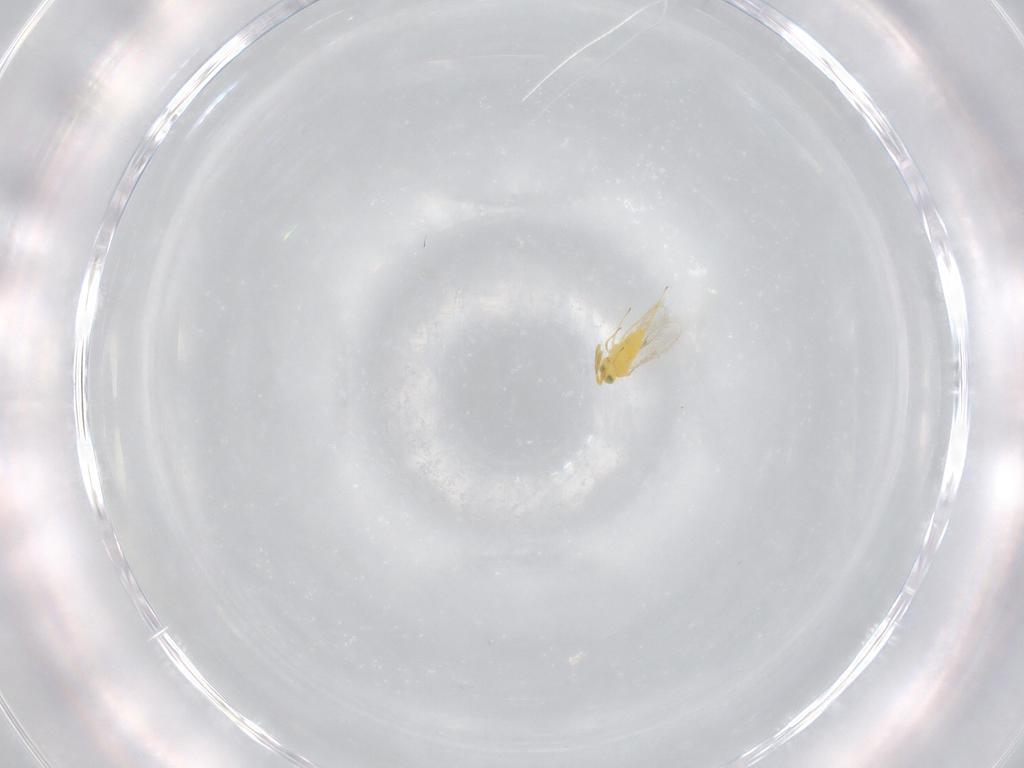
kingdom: Animalia
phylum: Arthropoda
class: Insecta
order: Hymenoptera
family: Scelionidae
